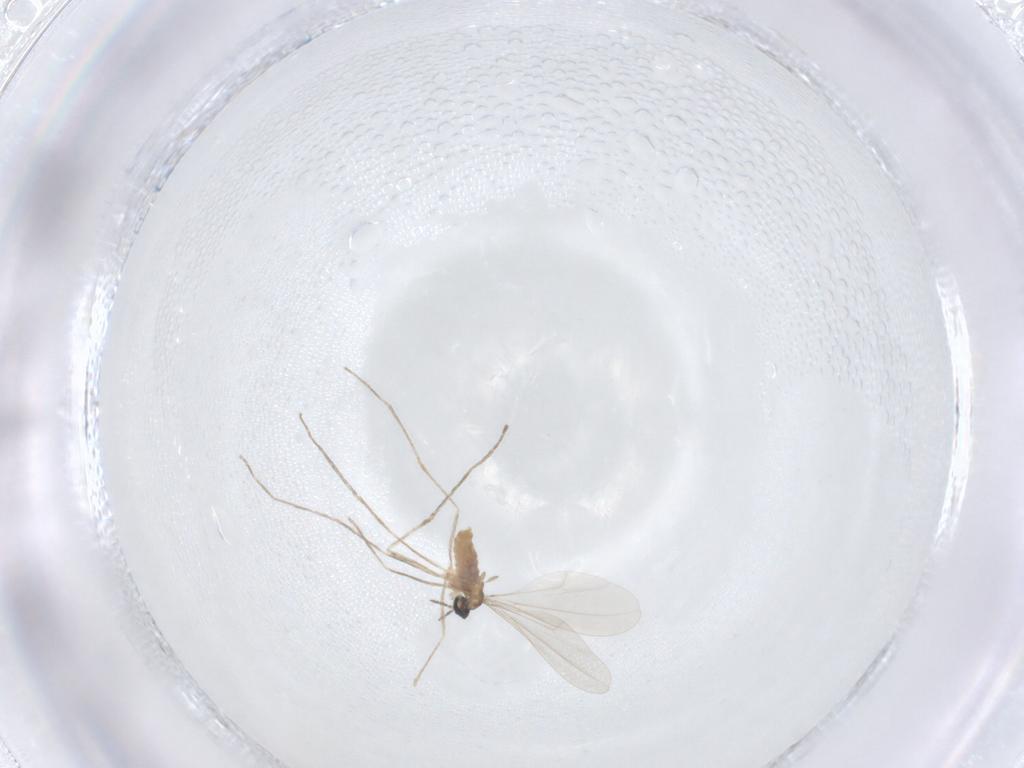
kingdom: Animalia
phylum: Arthropoda
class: Insecta
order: Diptera
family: Cecidomyiidae
